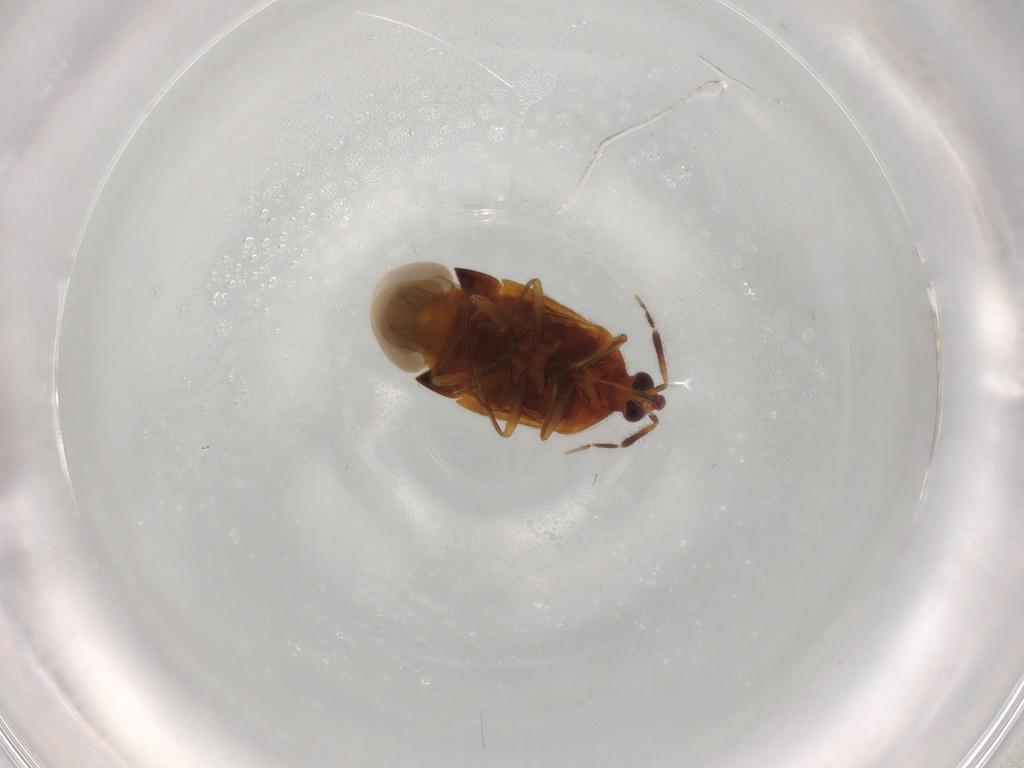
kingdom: Animalia
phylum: Arthropoda
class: Insecta
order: Hemiptera
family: Anthocoridae
